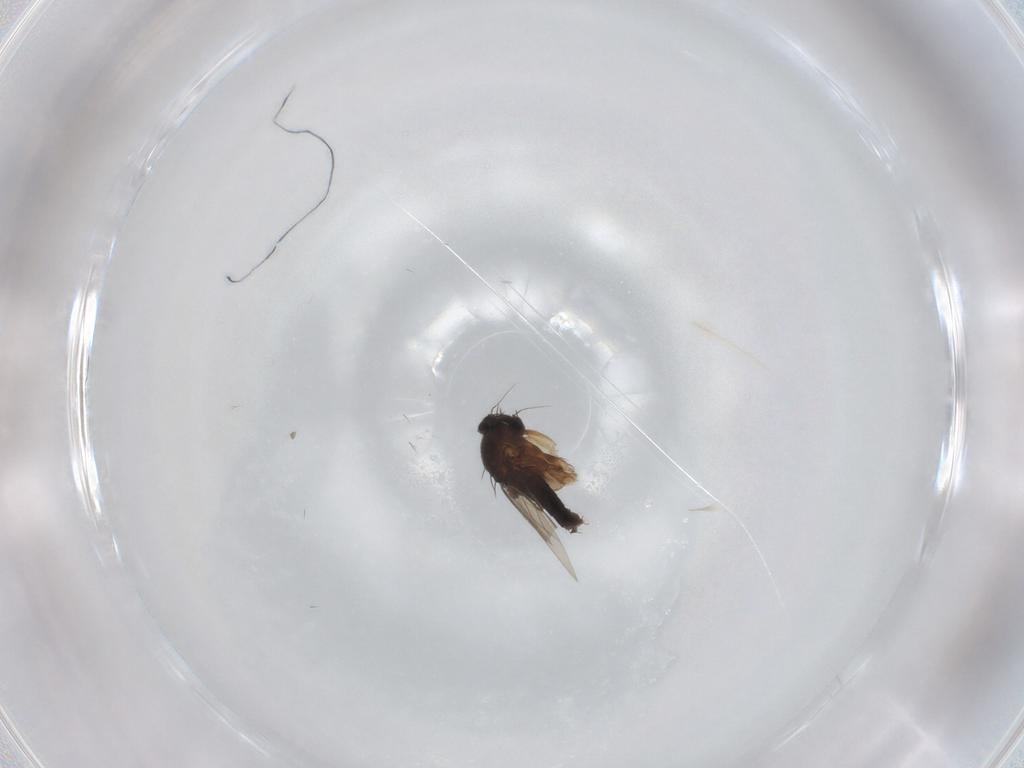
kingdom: Animalia
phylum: Arthropoda
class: Insecta
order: Diptera
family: Phoridae
